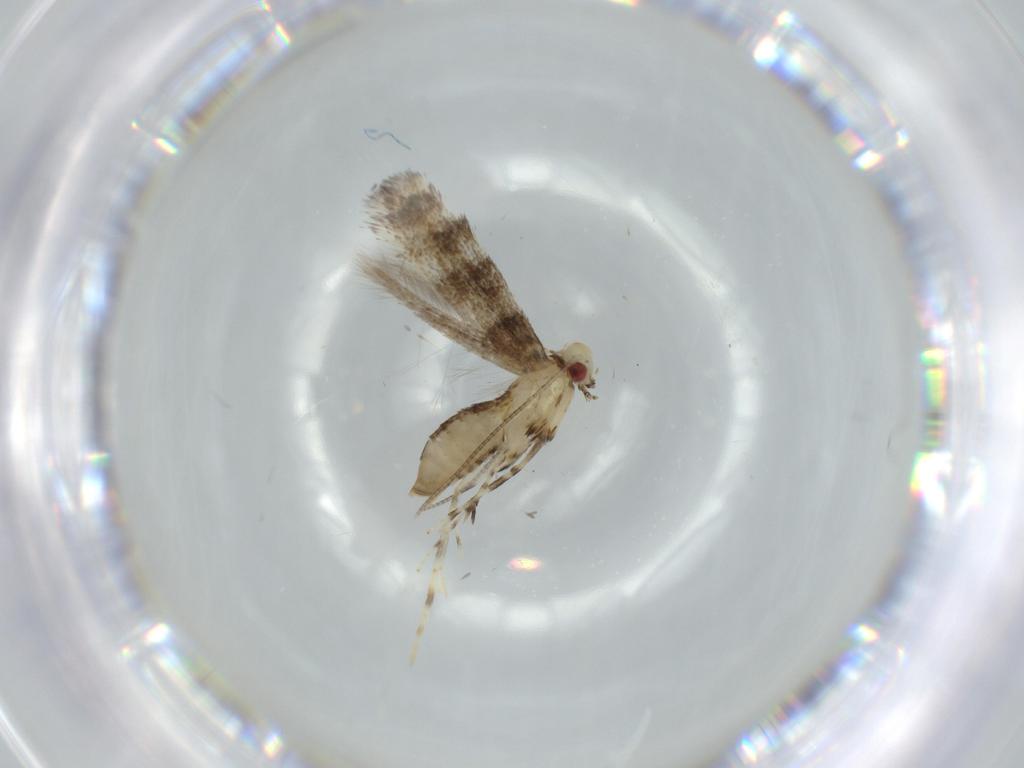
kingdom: Animalia
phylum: Arthropoda
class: Insecta
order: Lepidoptera
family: Gracillariidae
